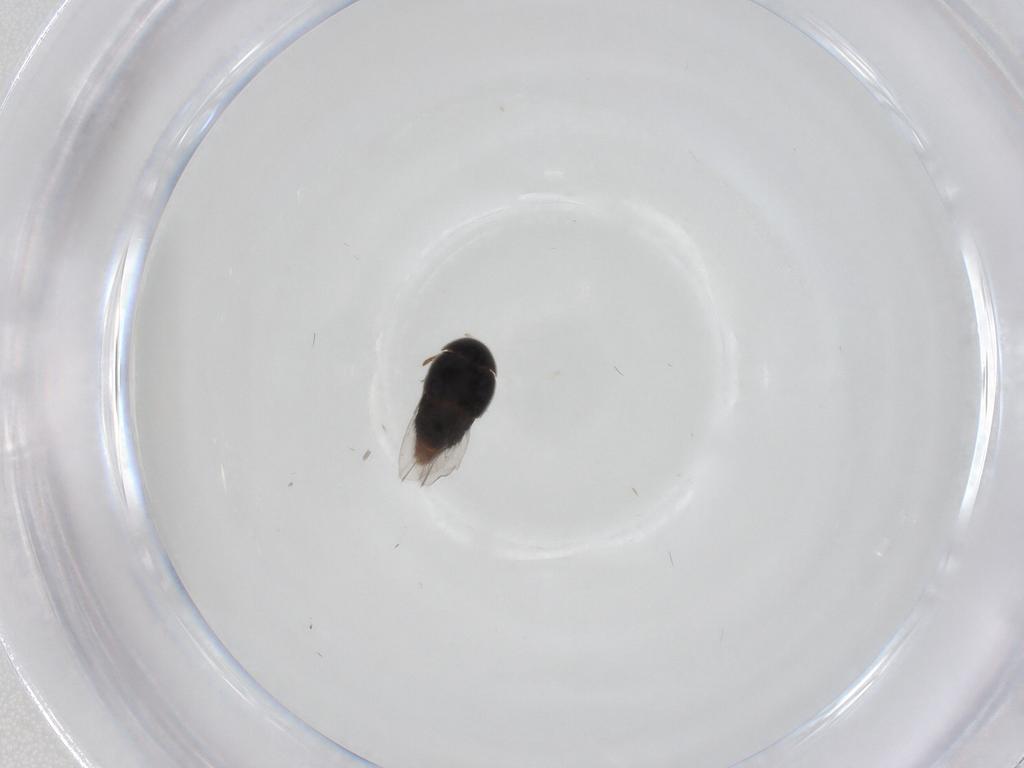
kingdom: Animalia
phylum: Arthropoda
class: Insecta
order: Coleoptera
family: Staphylinidae
